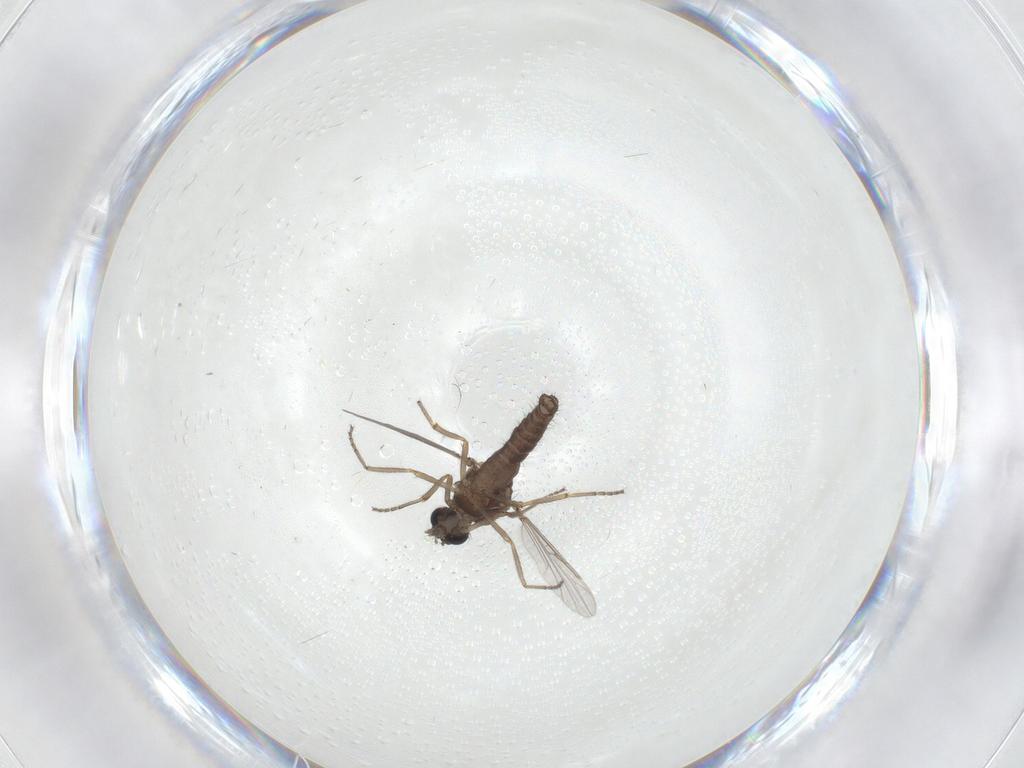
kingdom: Animalia
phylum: Arthropoda
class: Insecta
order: Diptera
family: Ceratopogonidae
